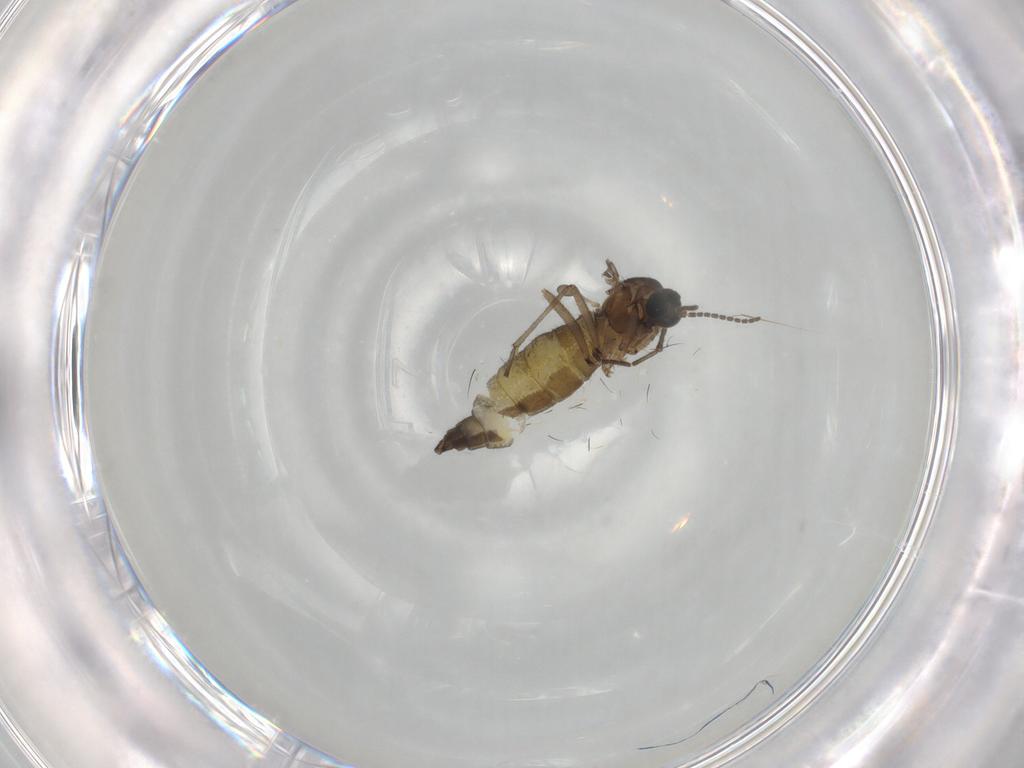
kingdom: Animalia
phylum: Arthropoda
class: Insecta
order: Diptera
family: Sciaridae
